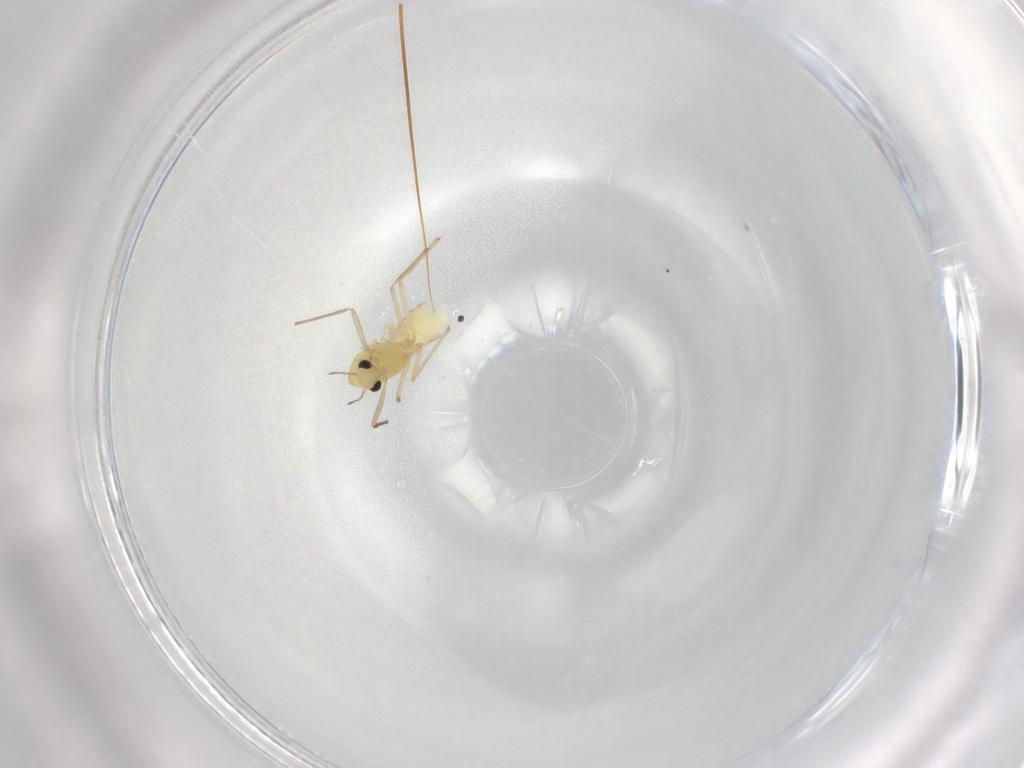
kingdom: Animalia
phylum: Arthropoda
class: Insecta
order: Diptera
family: Chironomidae
